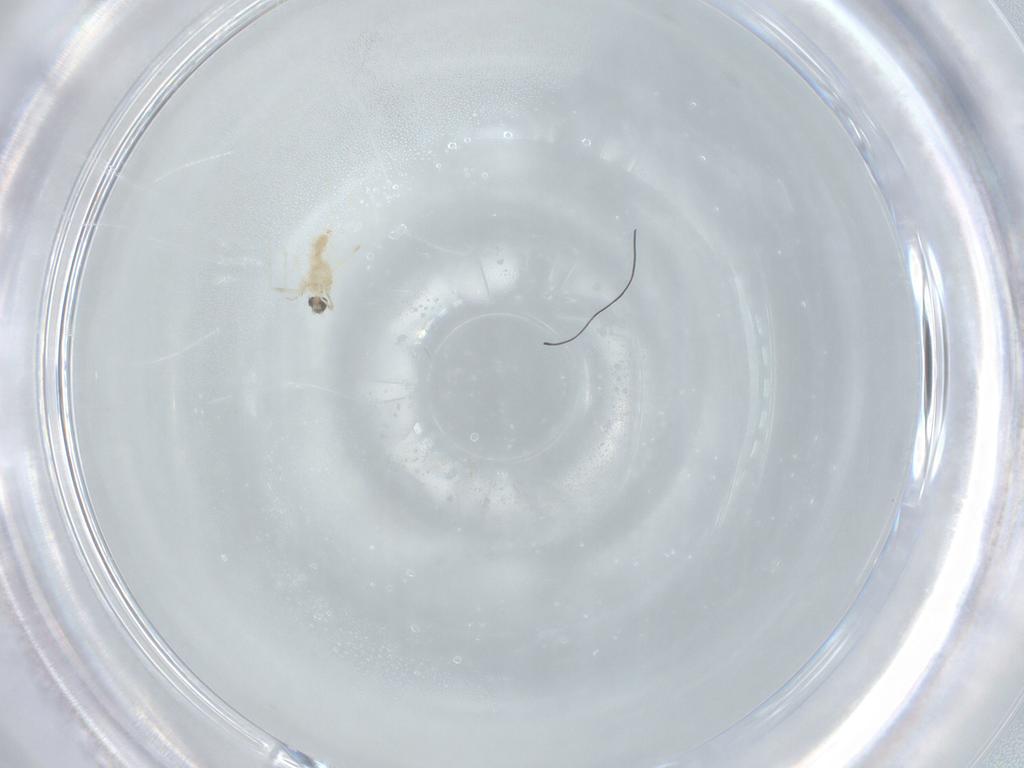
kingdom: Animalia
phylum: Arthropoda
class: Insecta
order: Diptera
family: Cecidomyiidae
